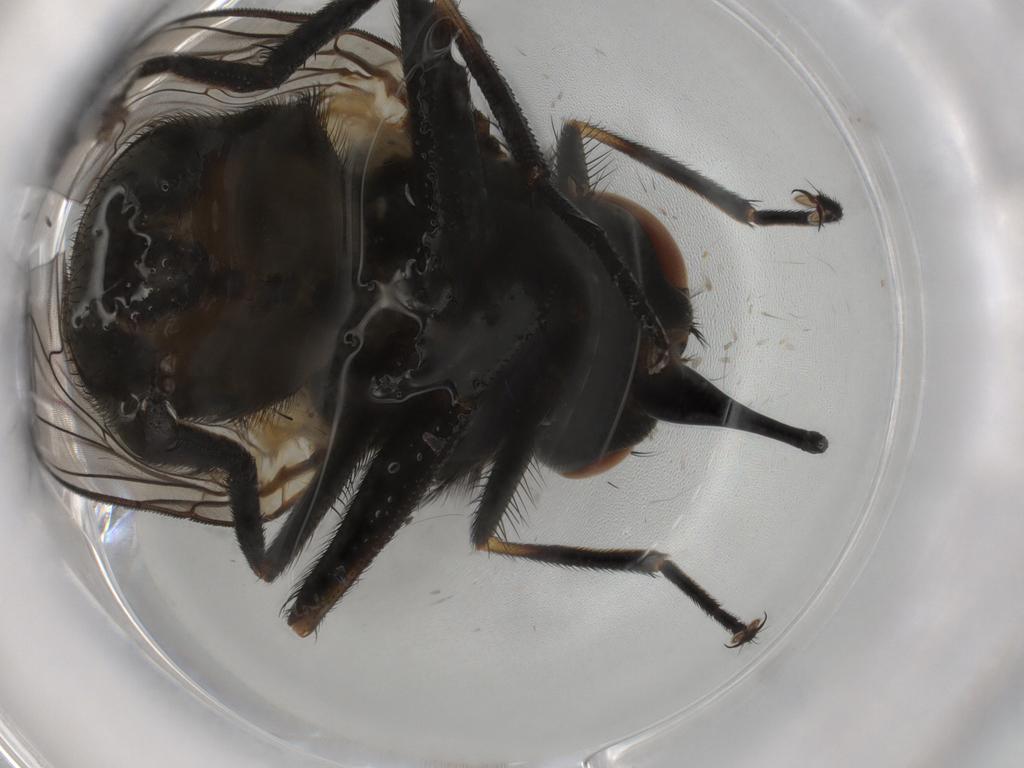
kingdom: Animalia
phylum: Arthropoda
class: Insecta
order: Diptera
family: Muscidae
